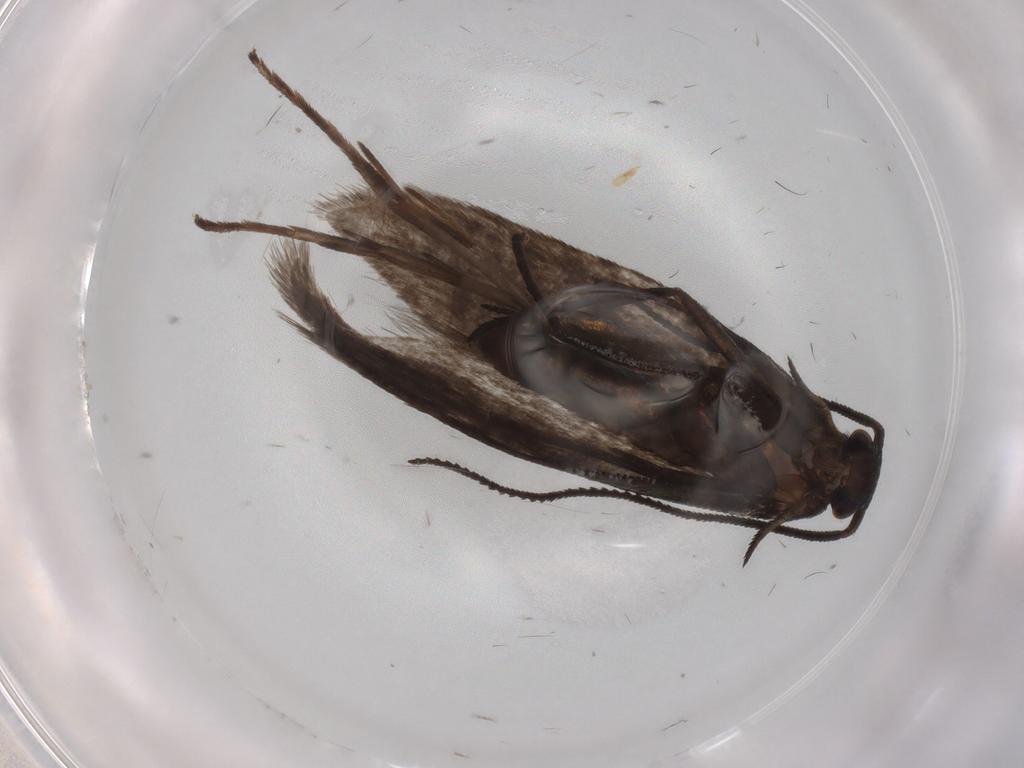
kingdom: Animalia
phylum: Arthropoda
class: Insecta
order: Lepidoptera
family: Argyresthiidae
